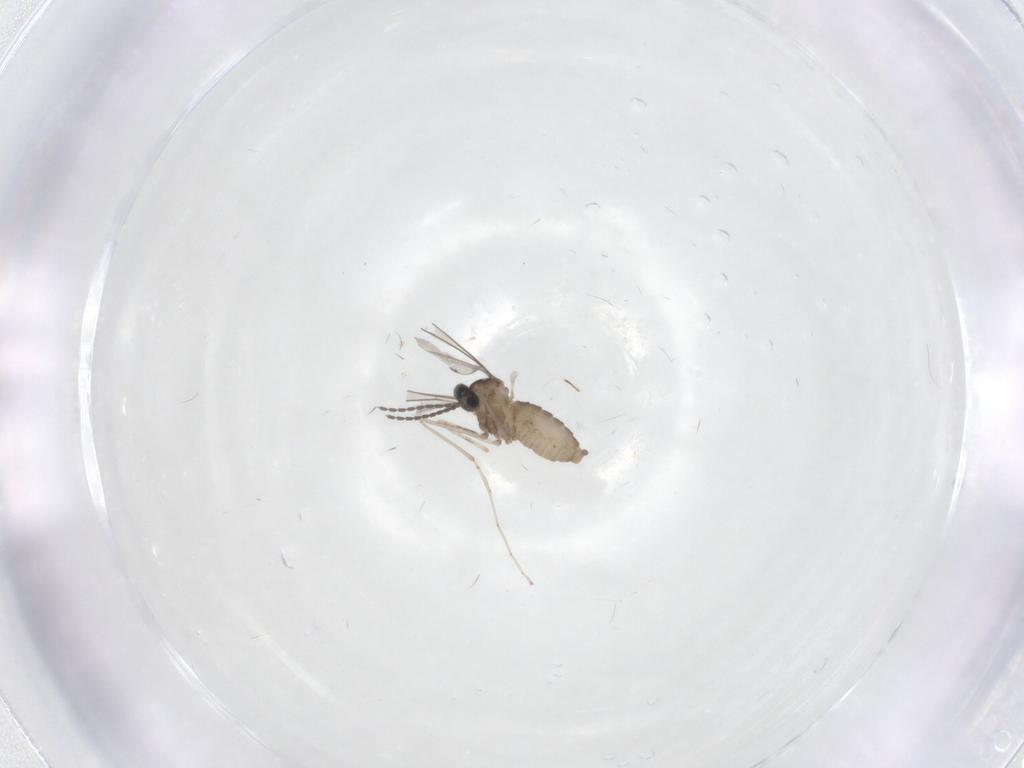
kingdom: Animalia
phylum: Arthropoda
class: Insecta
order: Diptera
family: Cecidomyiidae
